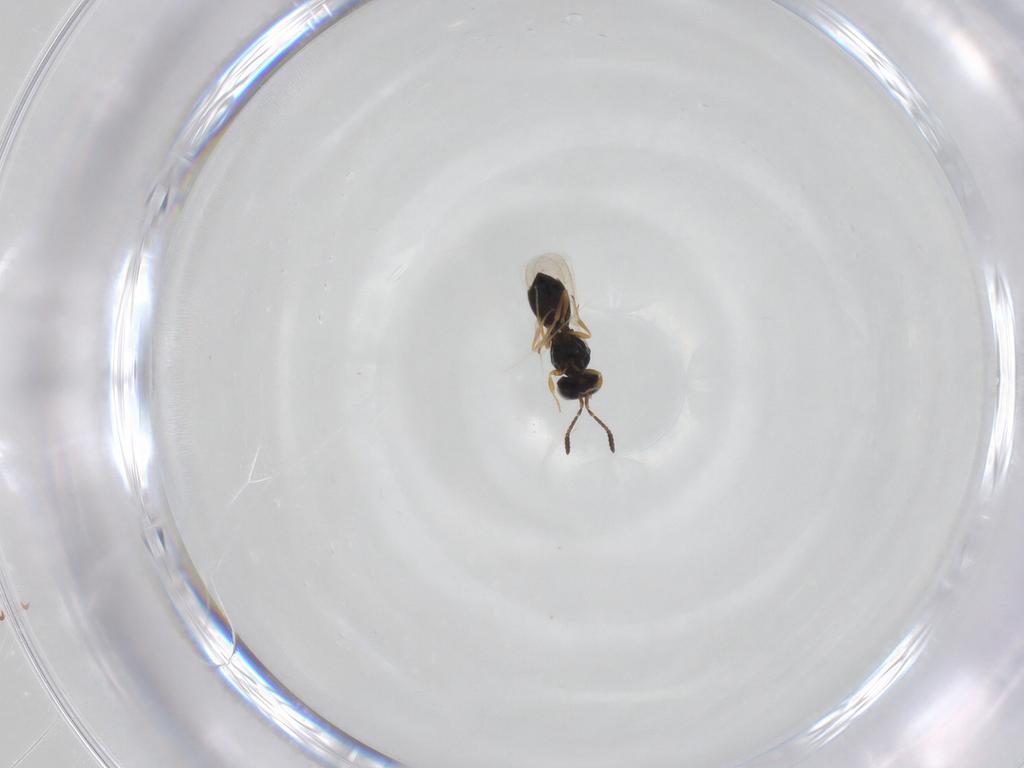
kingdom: Animalia
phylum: Arthropoda
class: Insecta
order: Hymenoptera
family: Scelionidae
